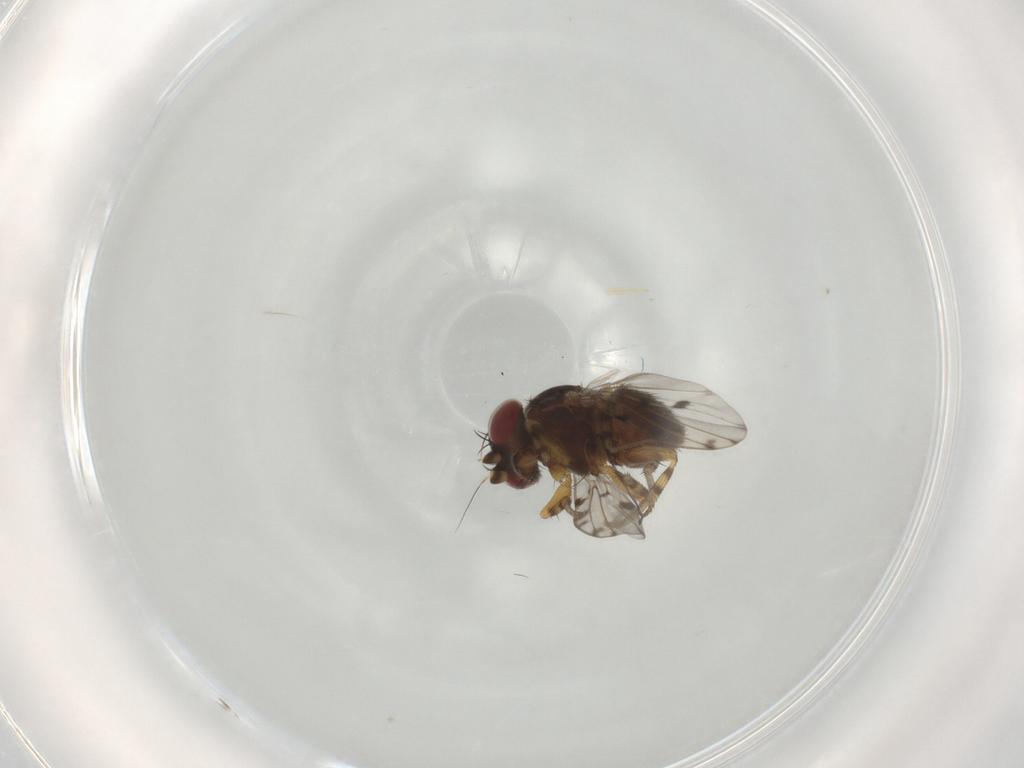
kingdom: Animalia
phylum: Arthropoda
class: Insecta
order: Diptera
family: Odiniidae
